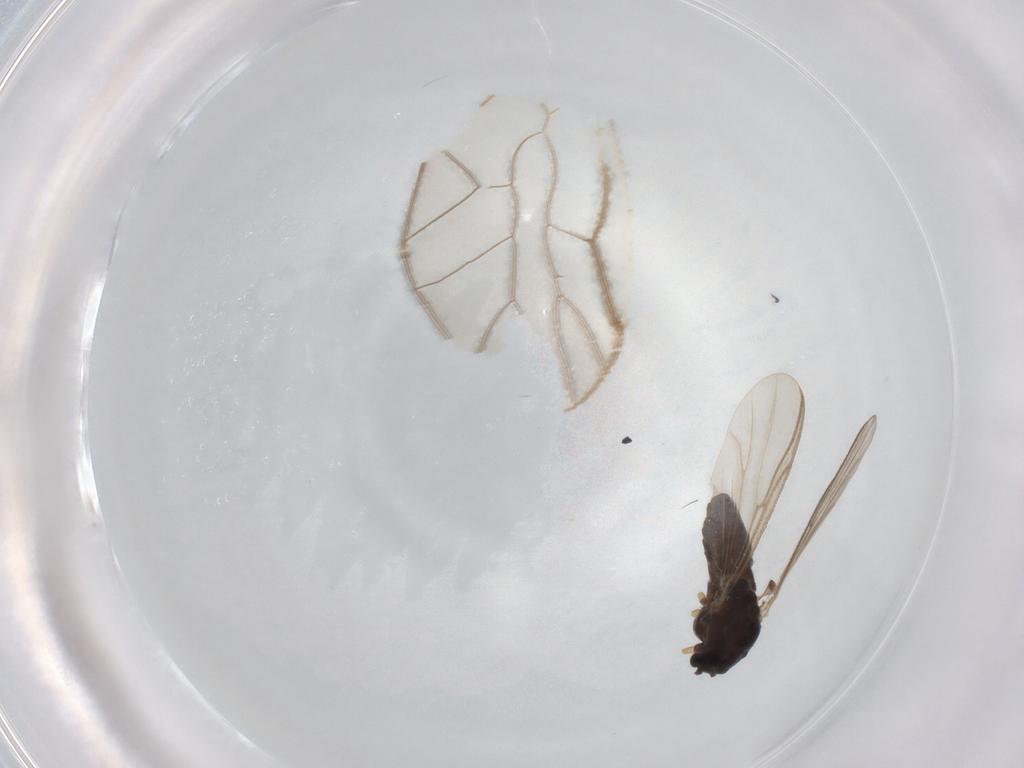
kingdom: Animalia
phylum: Arthropoda
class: Insecta
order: Diptera
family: Chironomidae
